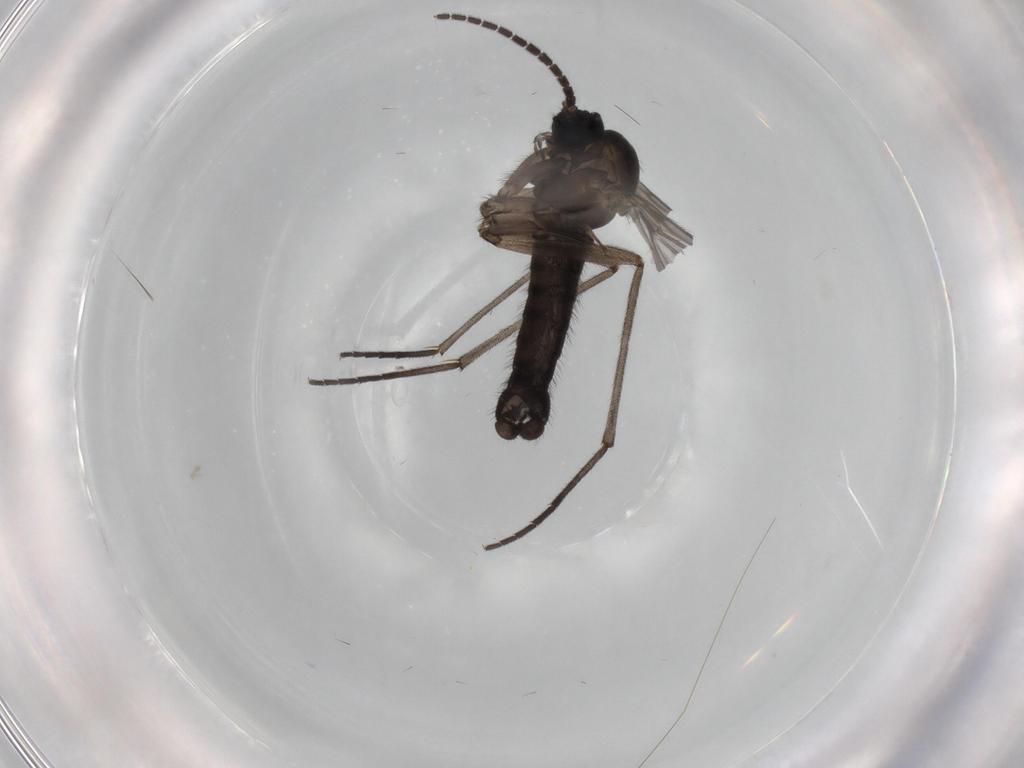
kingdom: Animalia
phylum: Arthropoda
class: Insecta
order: Diptera
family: Sciaridae
